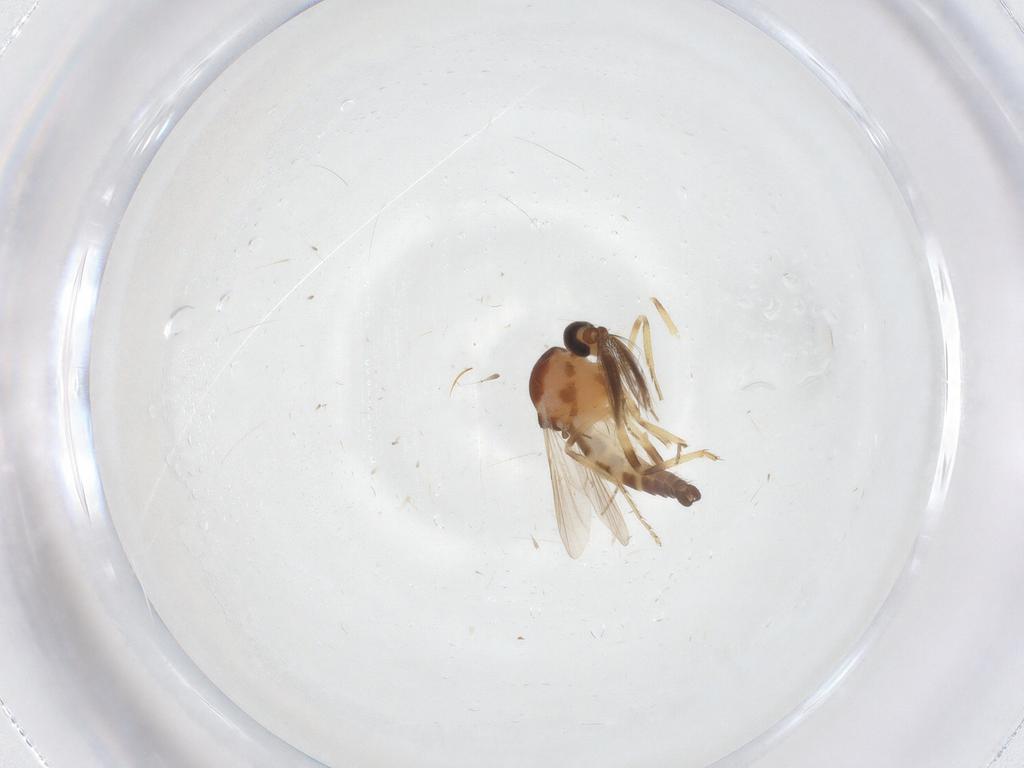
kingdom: Animalia
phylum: Arthropoda
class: Insecta
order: Diptera
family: Ceratopogonidae
